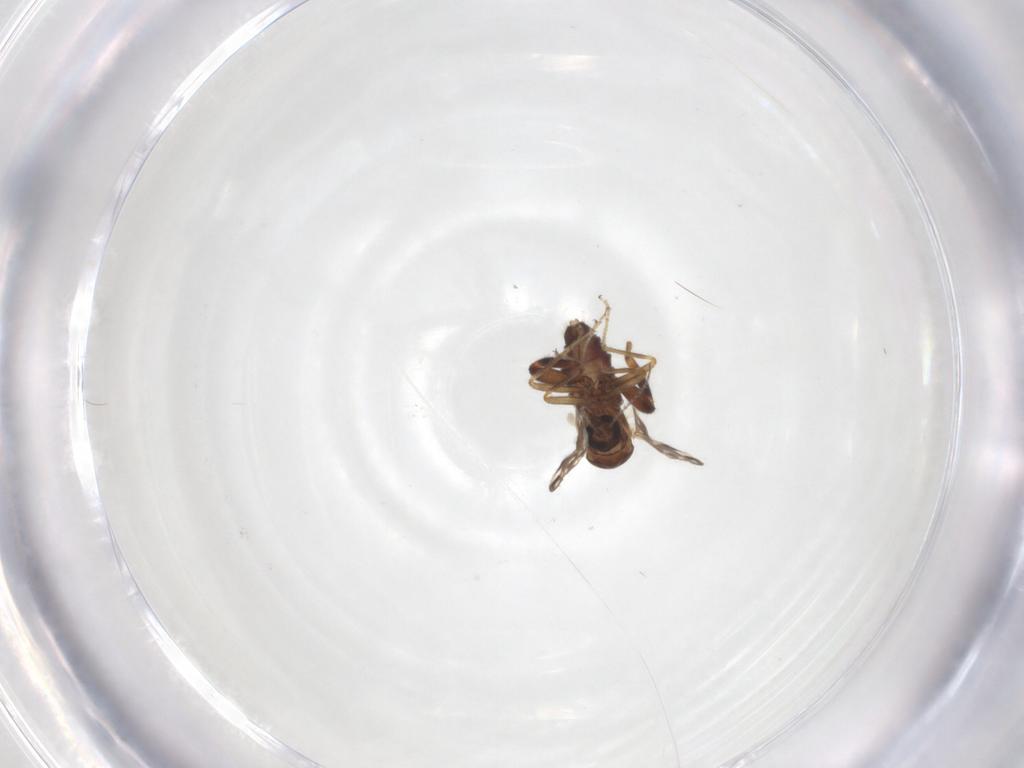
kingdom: Animalia
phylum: Arthropoda
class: Insecta
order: Diptera
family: Ceratopogonidae
